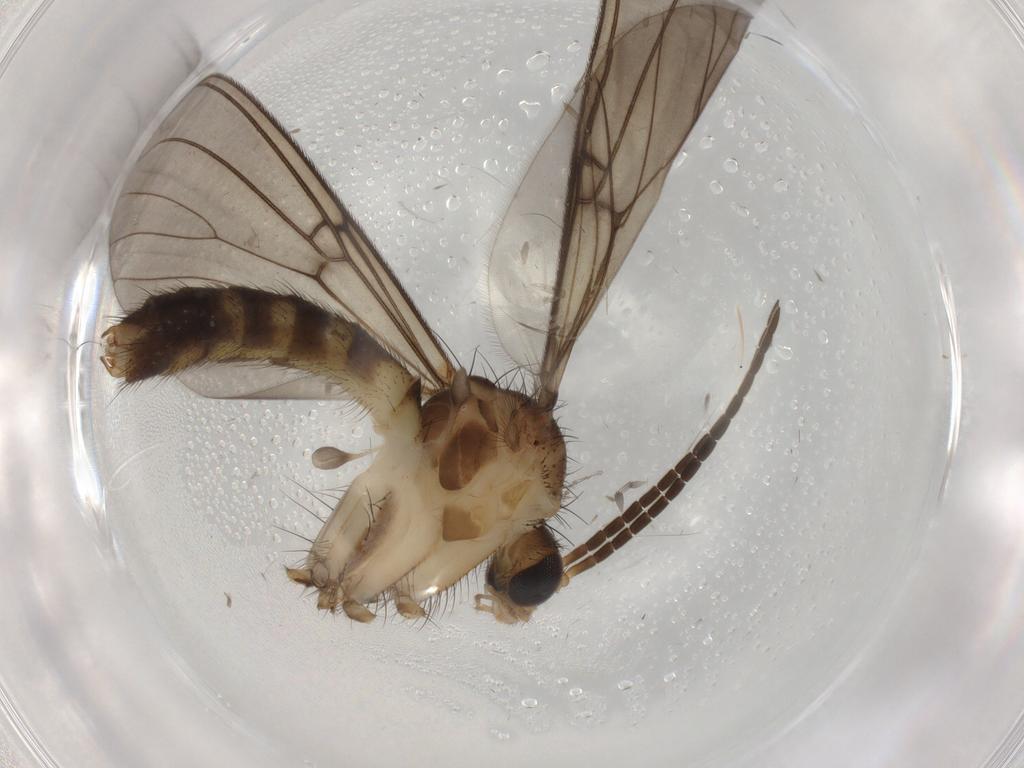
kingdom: Animalia
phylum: Arthropoda
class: Insecta
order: Diptera
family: Mycetophilidae
